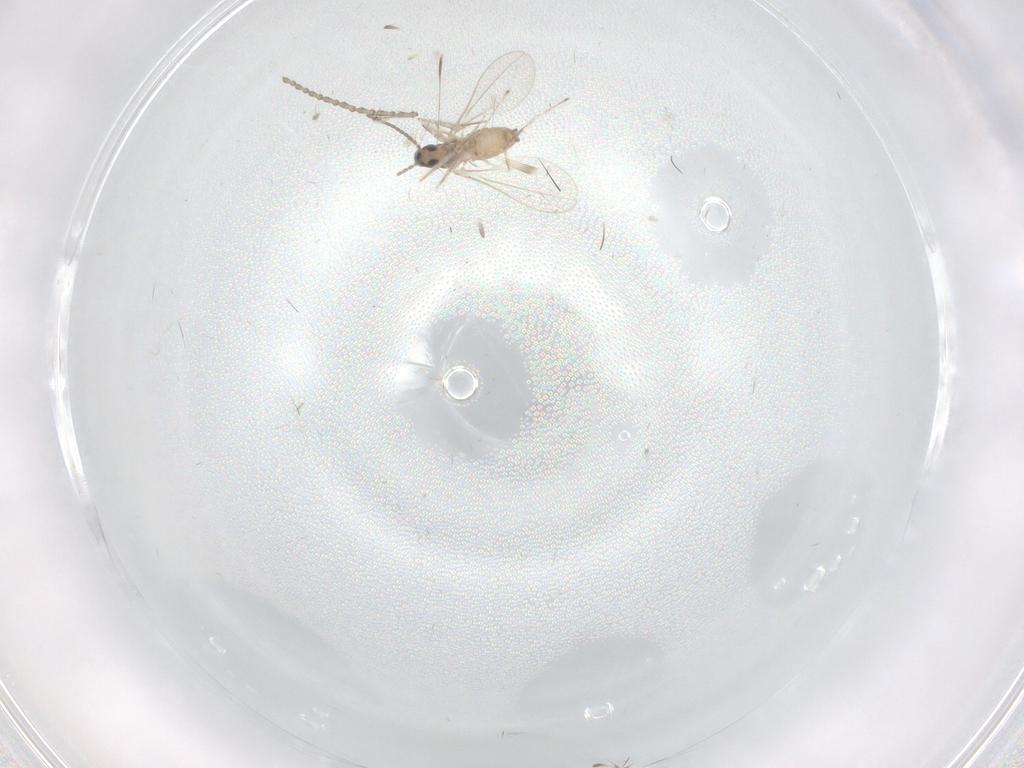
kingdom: Animalia
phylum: Arthropoda
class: Insecta
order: Diptera
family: Cecidomyiidae
